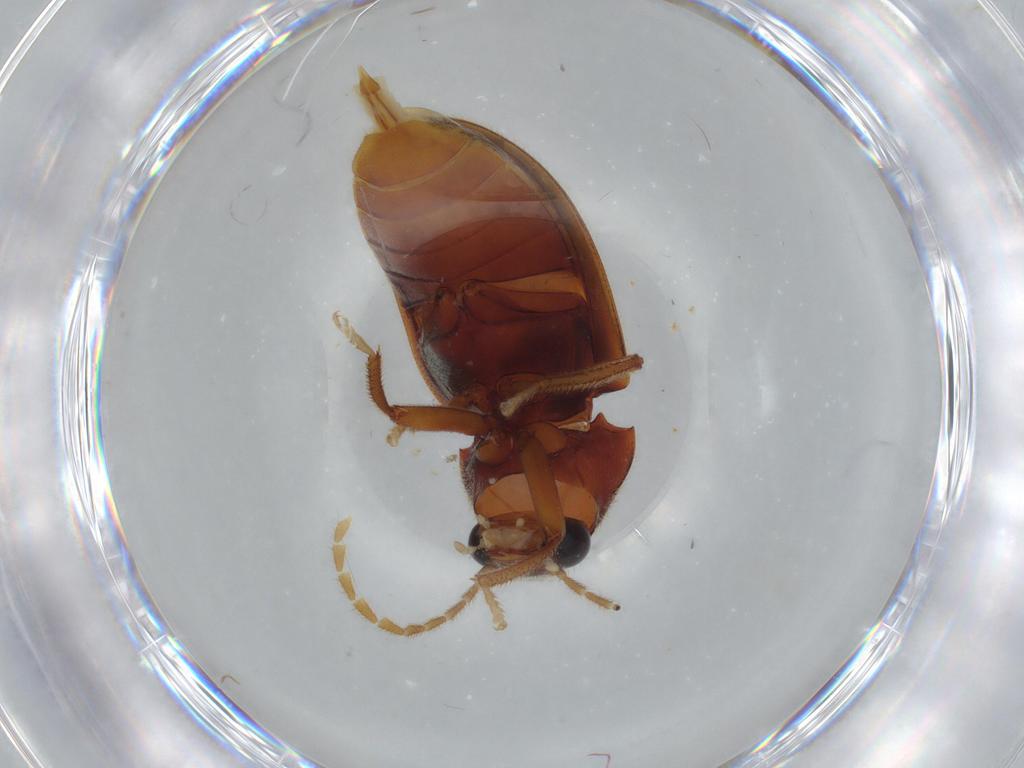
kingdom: Animalia
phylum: Arthropoda
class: Insecta
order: Coleoptera
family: Ptilodactylidae
